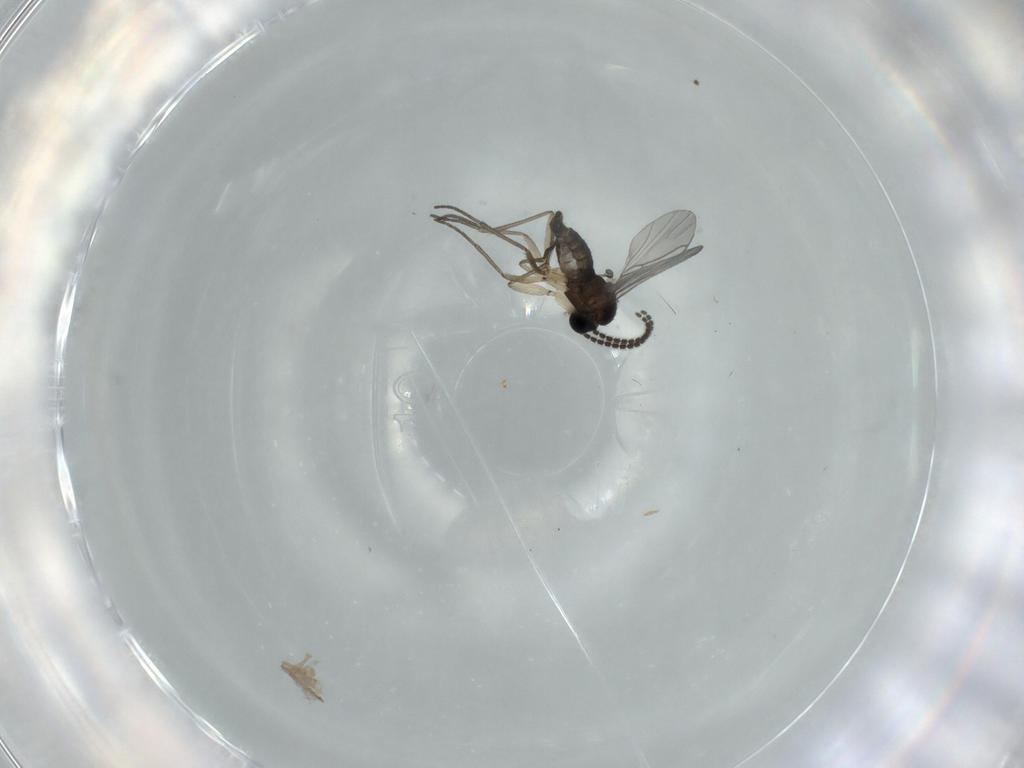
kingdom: Animalia
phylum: Arthropoda
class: Insecta
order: Diptera
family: Sciaridae
